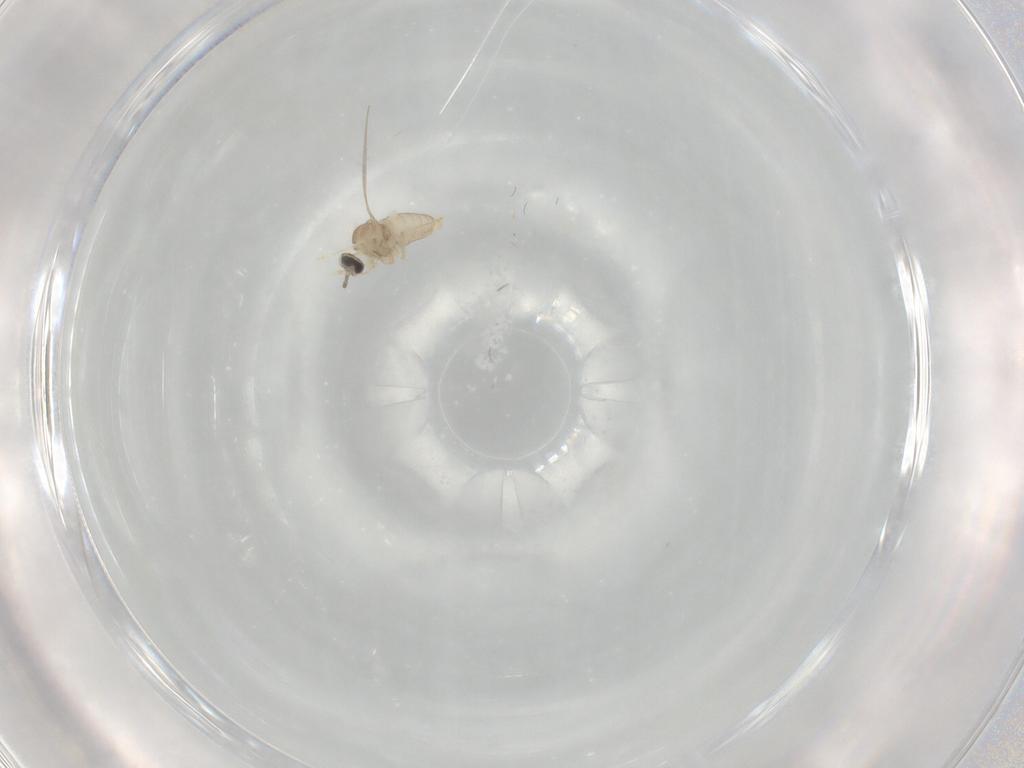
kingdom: Animalia
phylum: Arthropoda
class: Insecta
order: Diptera
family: Cecidomyiidae
